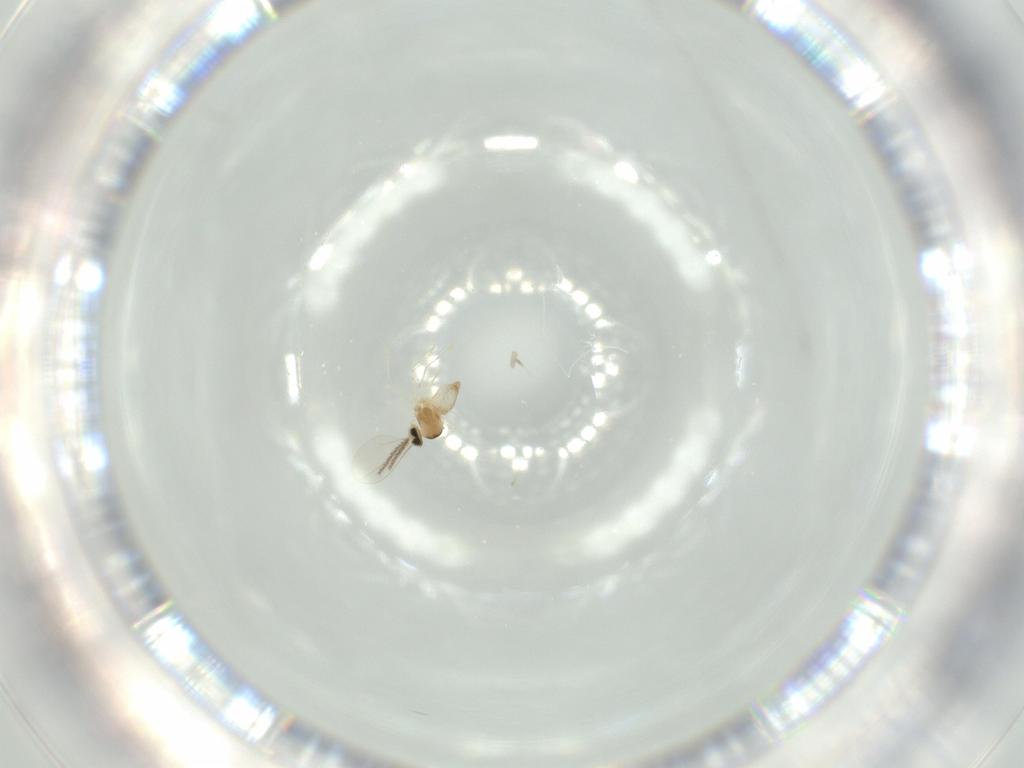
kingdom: Animalia
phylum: Arthropoda
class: Insecta
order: Diptera
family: Cecidomyiidae
